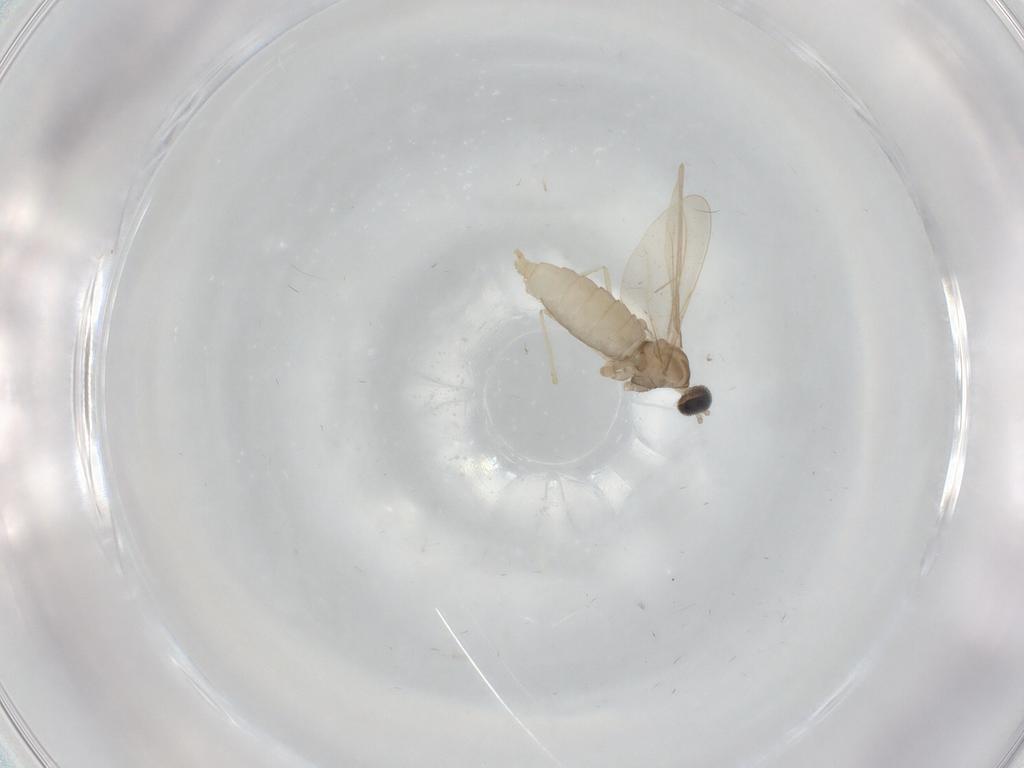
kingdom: Animalia
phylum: Arthropoda
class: Insecta
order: Diptera
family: Cecidomyiidae
